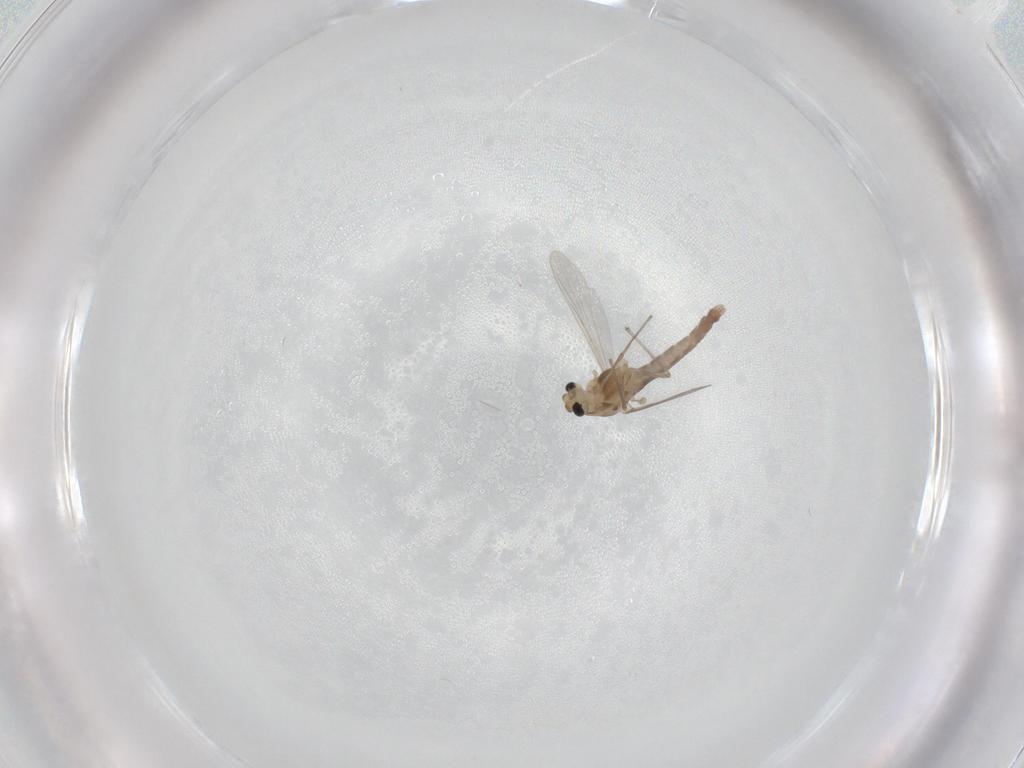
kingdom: Animalia
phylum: Arthropoda
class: Insecta
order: Diptera
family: Chironomidae
